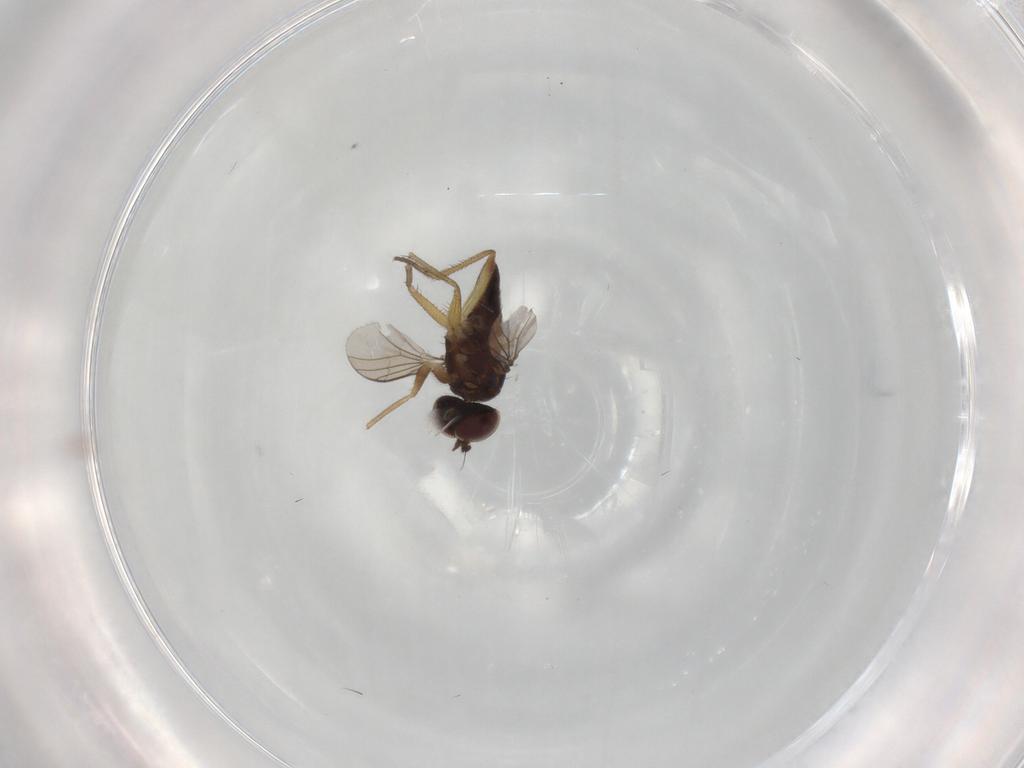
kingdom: Animalia
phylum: Arthropoda
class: Insecta
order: Diptera
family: Dolichopodidae
